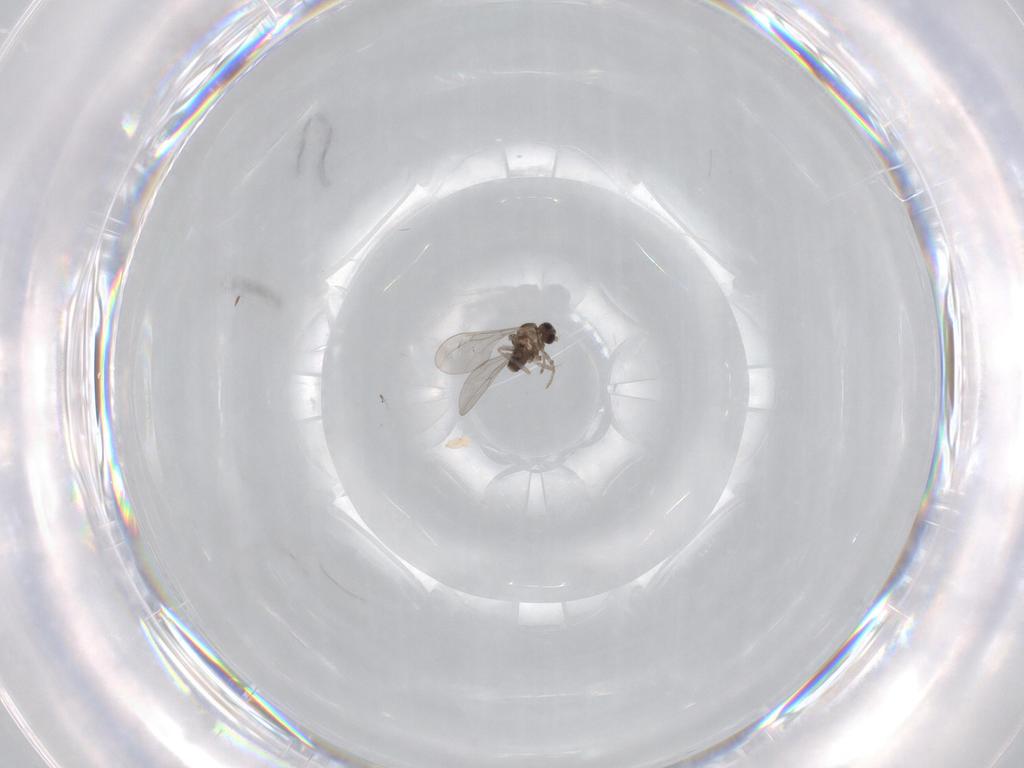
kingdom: Animalia
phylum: Arthropoda
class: Insecta
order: Diptera
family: Cecidomyiidae
